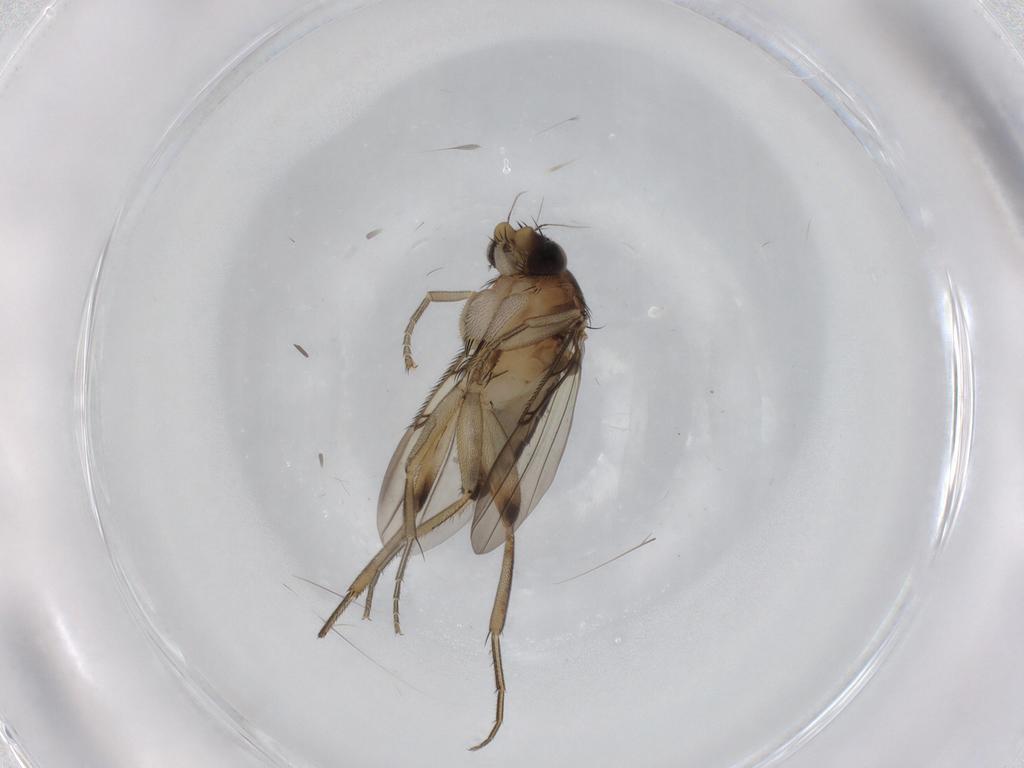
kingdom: Animalia
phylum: Arthropoda
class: Insecta
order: Diptera
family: Phoridae
